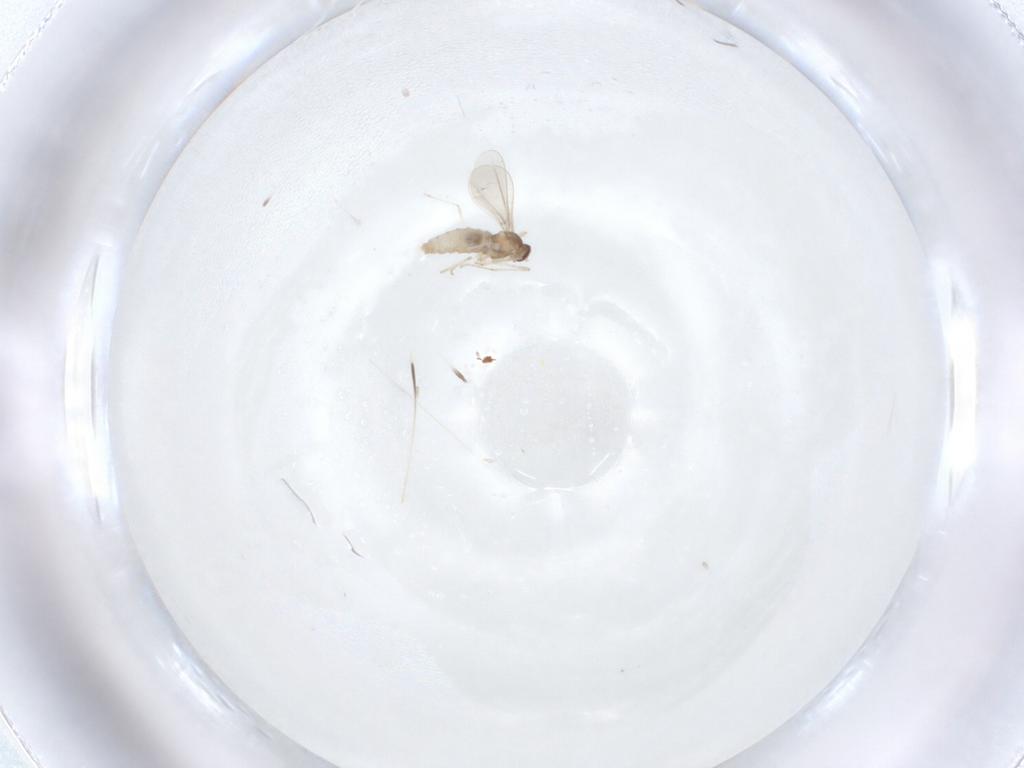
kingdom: Animalia
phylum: Arthropoda
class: Insecta
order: Diptera
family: Cecidomyiidae
